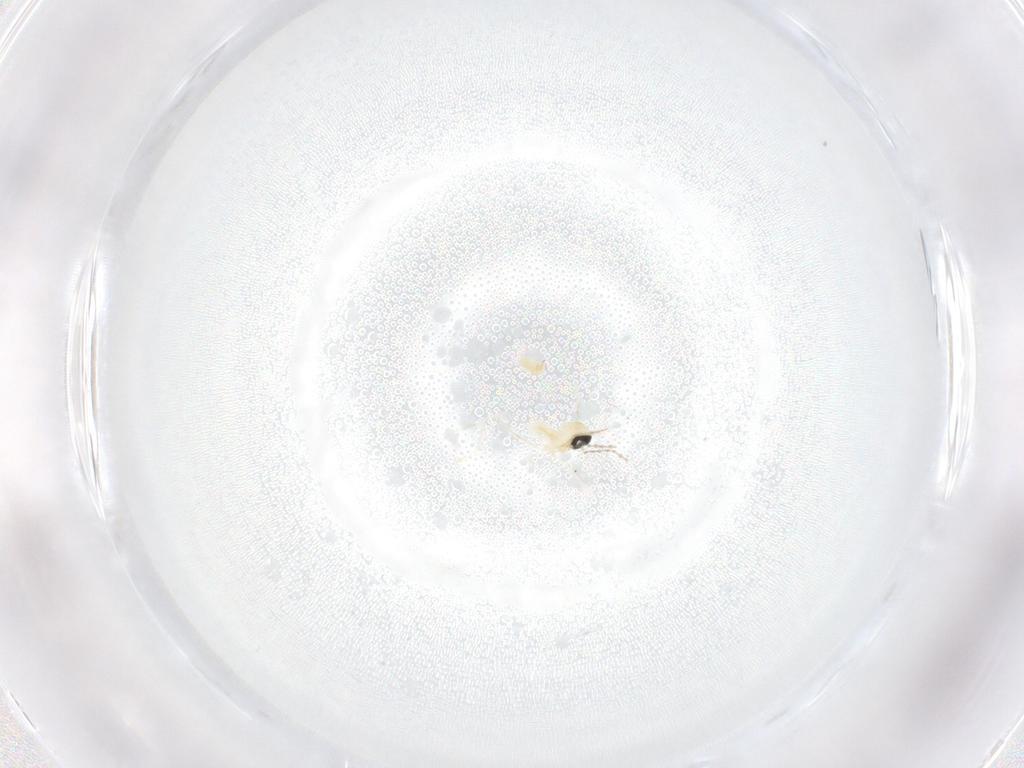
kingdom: Animalia
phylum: Arthropoda
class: Insecta
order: Diptera
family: Cecidomyiidae
